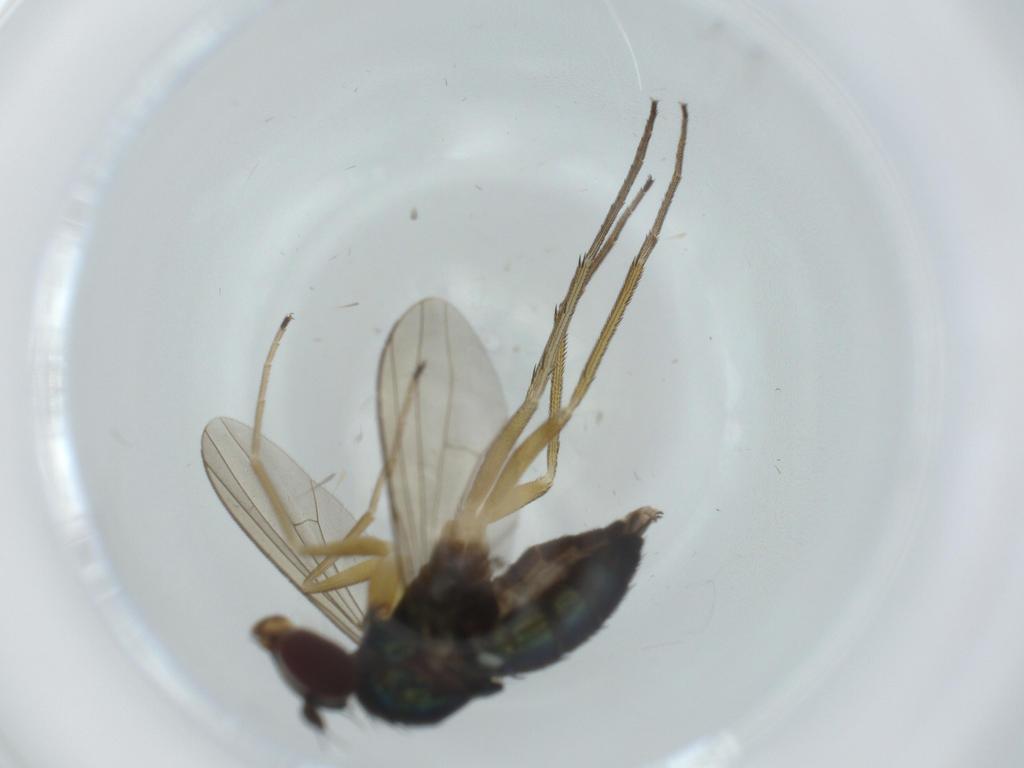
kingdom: Animalia
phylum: Arthropoda
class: Insecta
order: Diptera
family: Dolichopodidae
